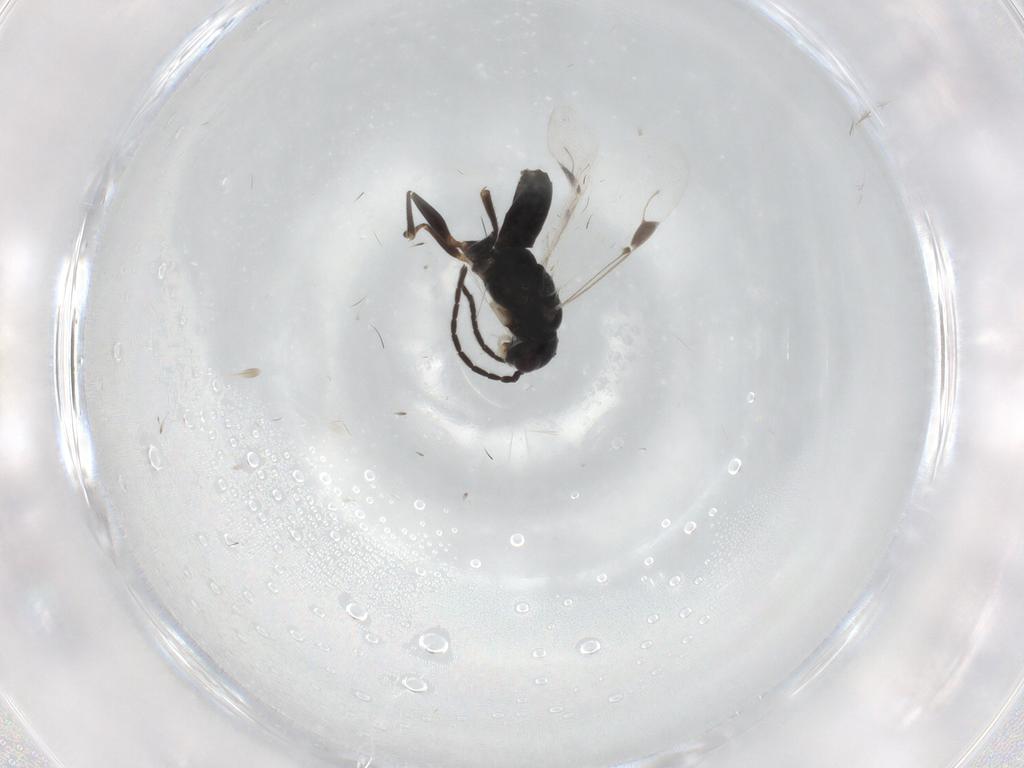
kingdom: Animalia
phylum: Arthropoda
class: Insecta
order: Hymenoptera
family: Dryinidae
